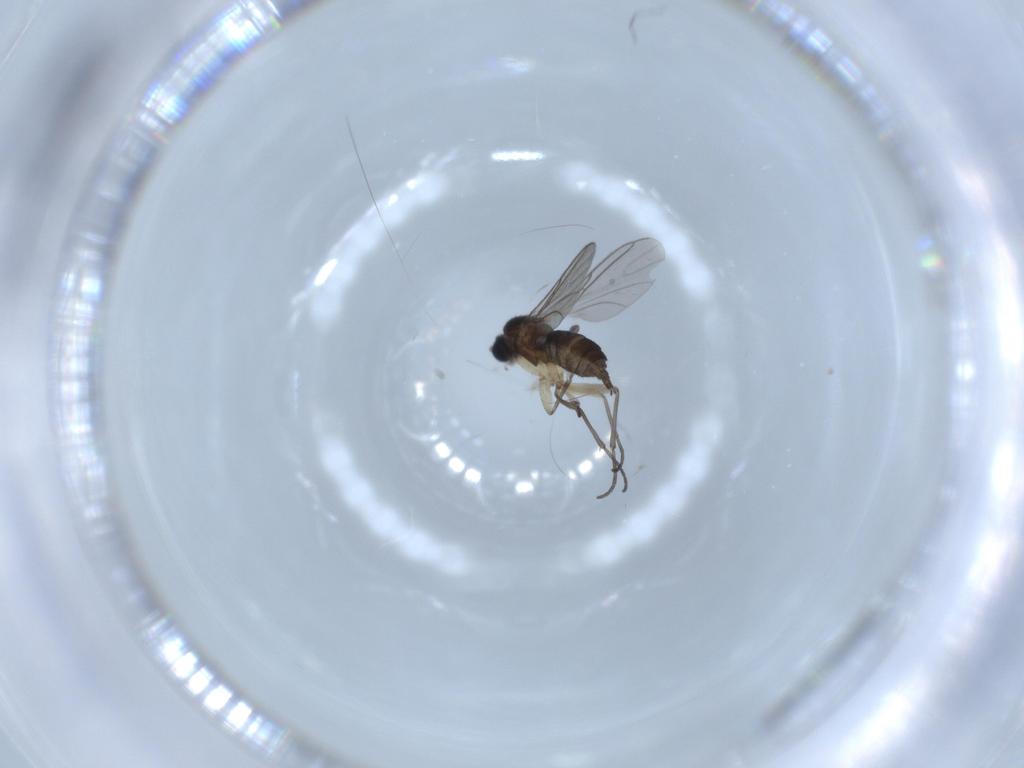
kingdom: Animalia
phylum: Arthropoda
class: Insecta
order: Diptera
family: Sciaridae
